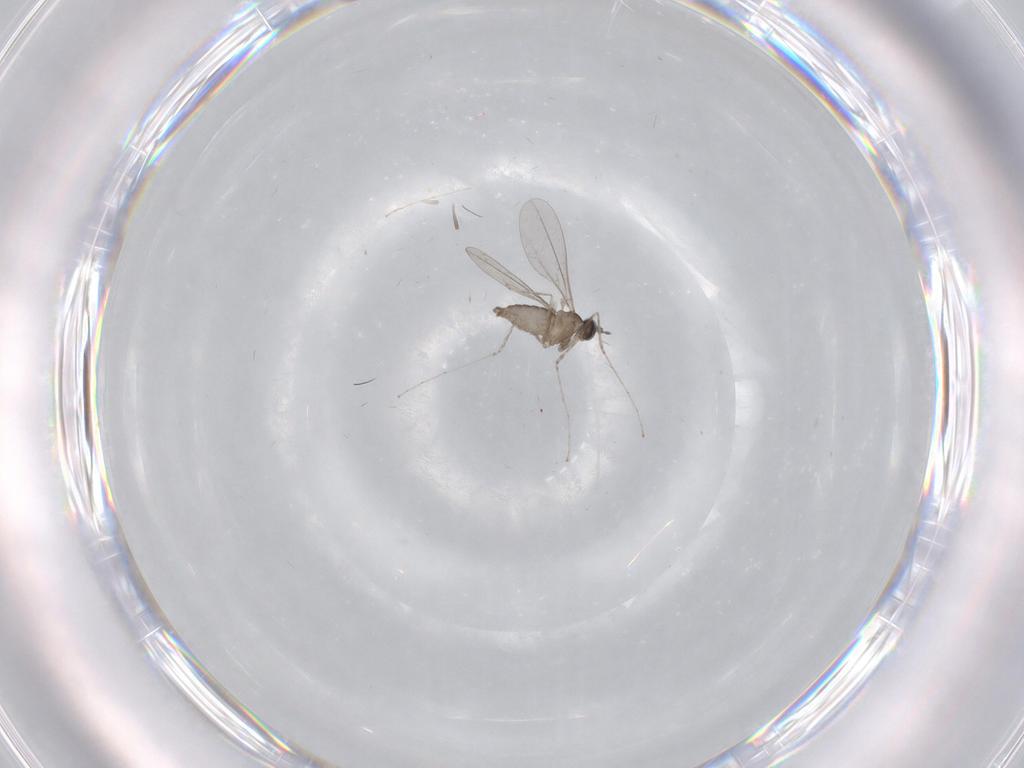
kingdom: Animalia
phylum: Arthropoda
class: Insecta
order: Diptera
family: Cecidomyiidae
